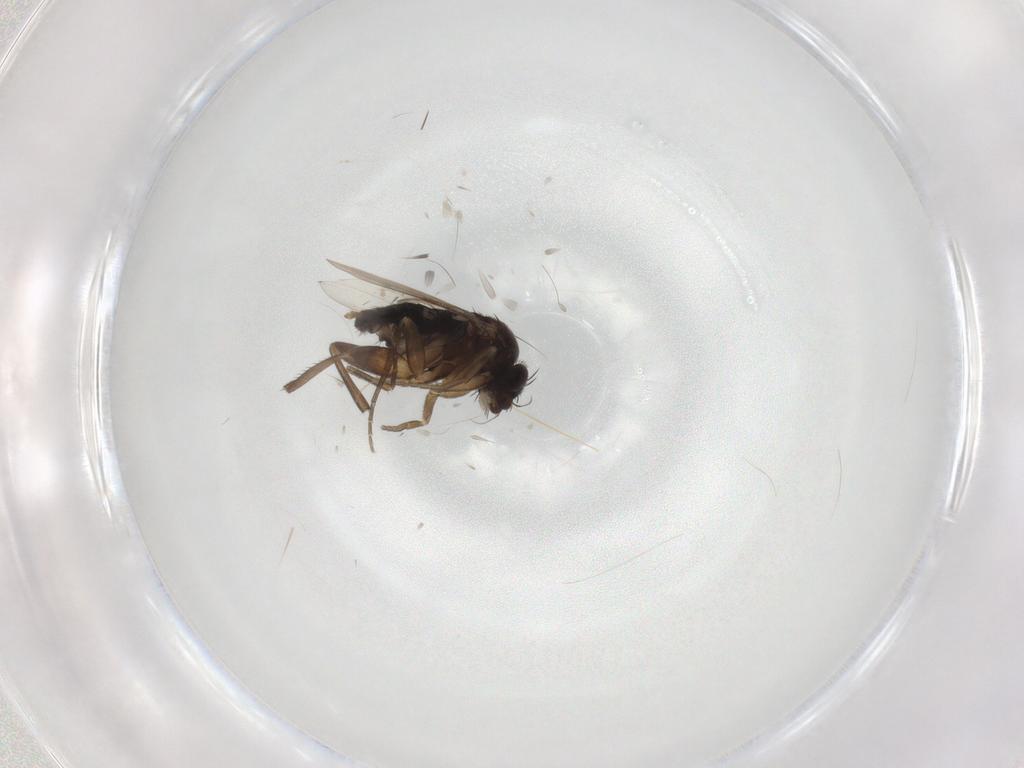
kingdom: Animalia
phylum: Arthropoda
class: Insecta
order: Diptera
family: Phoridae
